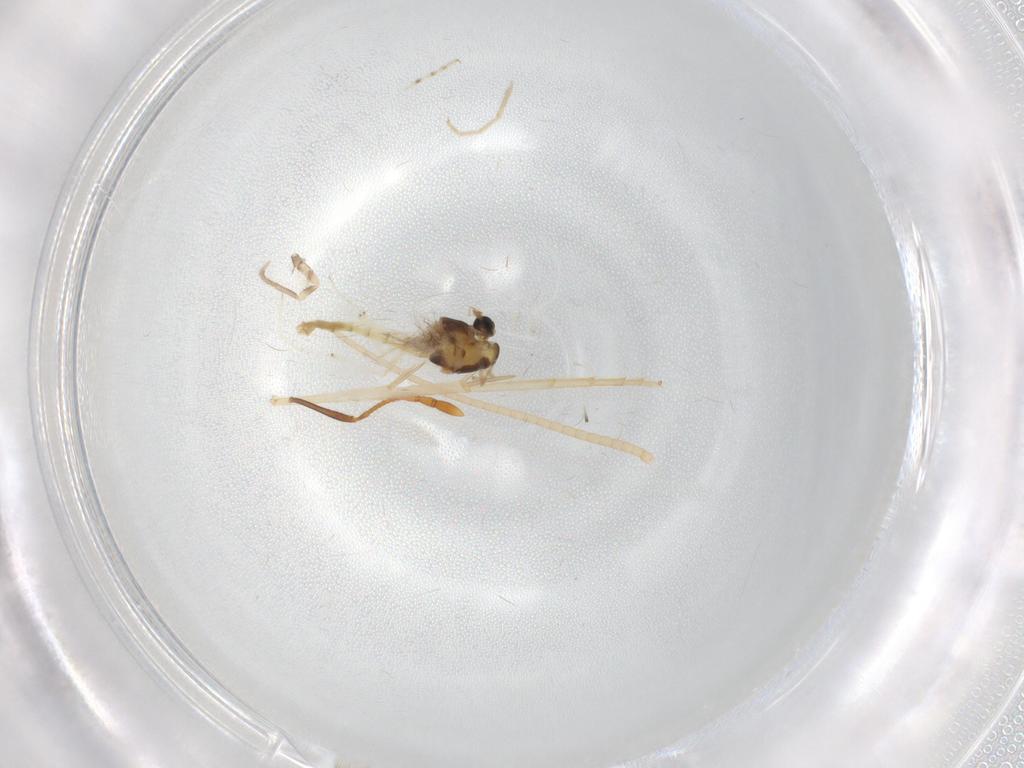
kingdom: Animalia
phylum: Arthropoda
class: Insecta
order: Diptera
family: Chironomidae
